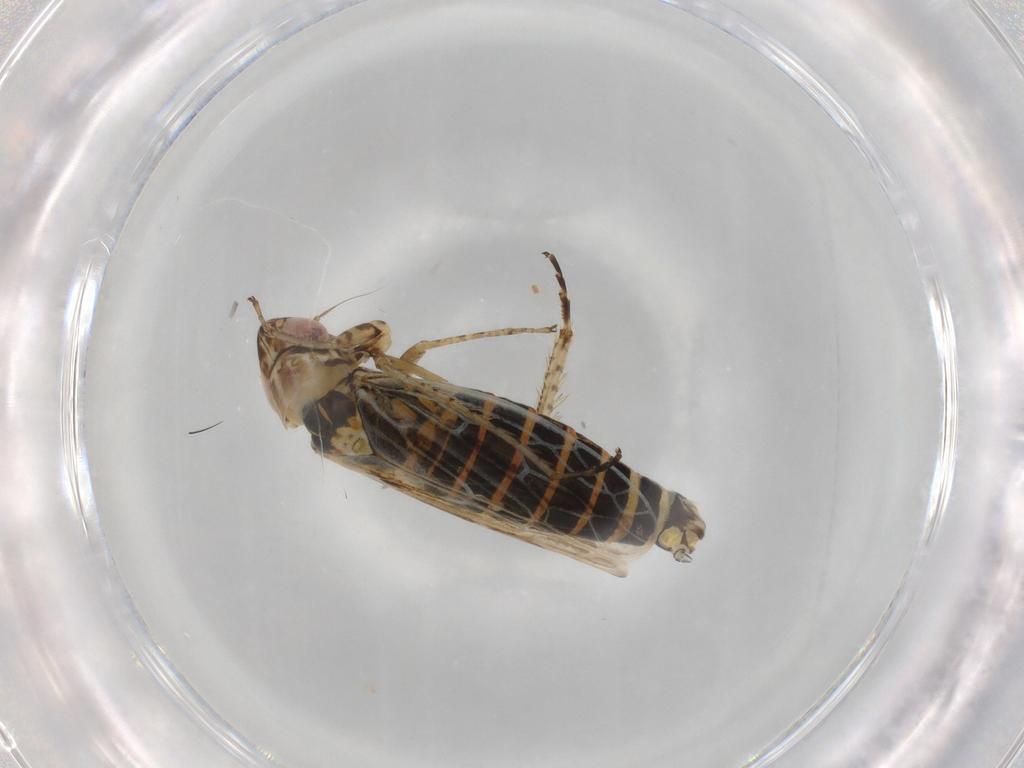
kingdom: Animalia
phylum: Arthropoda
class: Insecta
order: Hemiptera
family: Cicadellidae
